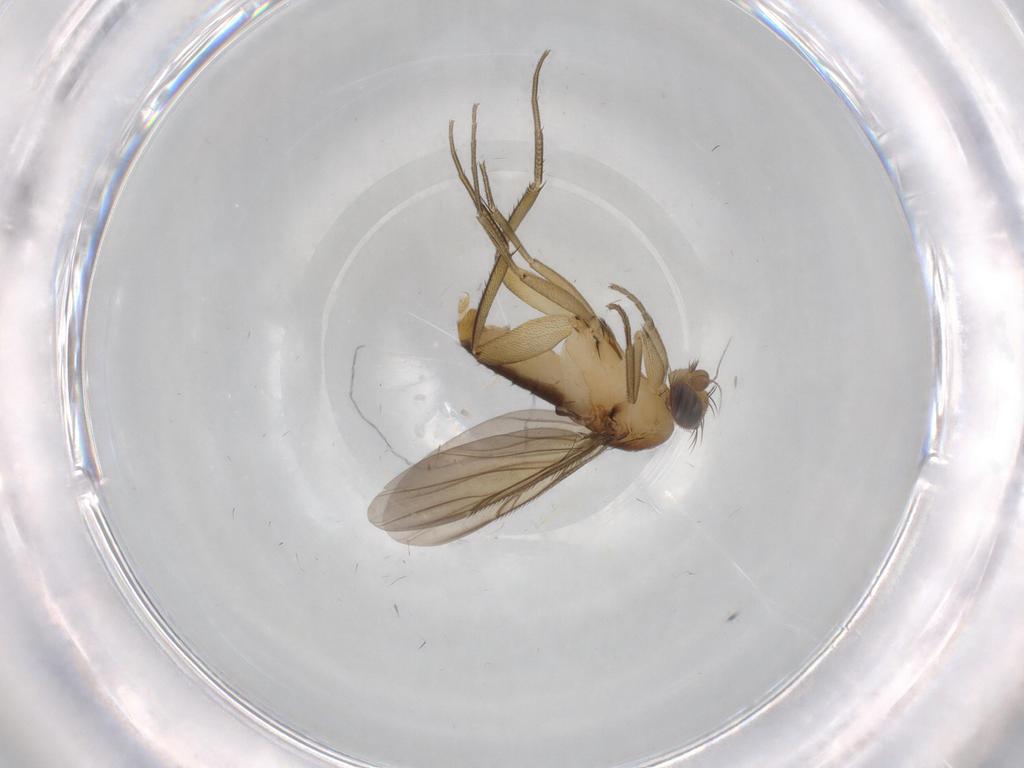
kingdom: Animalia
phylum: Arthropoda
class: Insecta
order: Diptera
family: Phoridae
